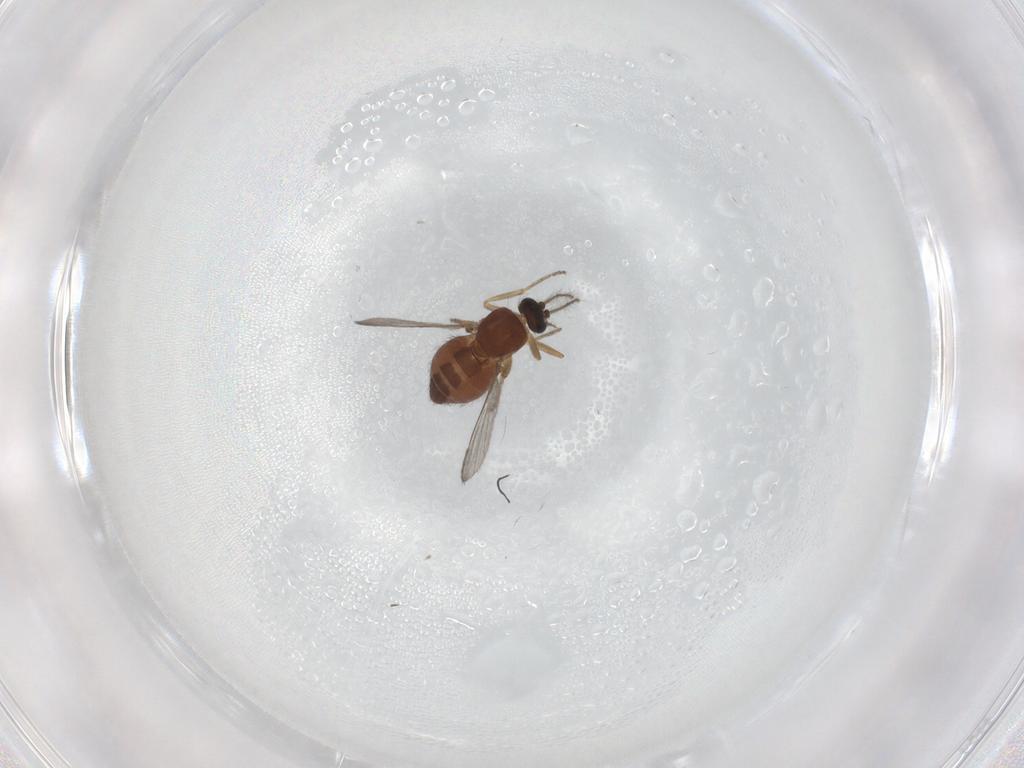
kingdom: Animalia
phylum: Arthropoda
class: Insecta
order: Diptera
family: Ceratopogonidae
